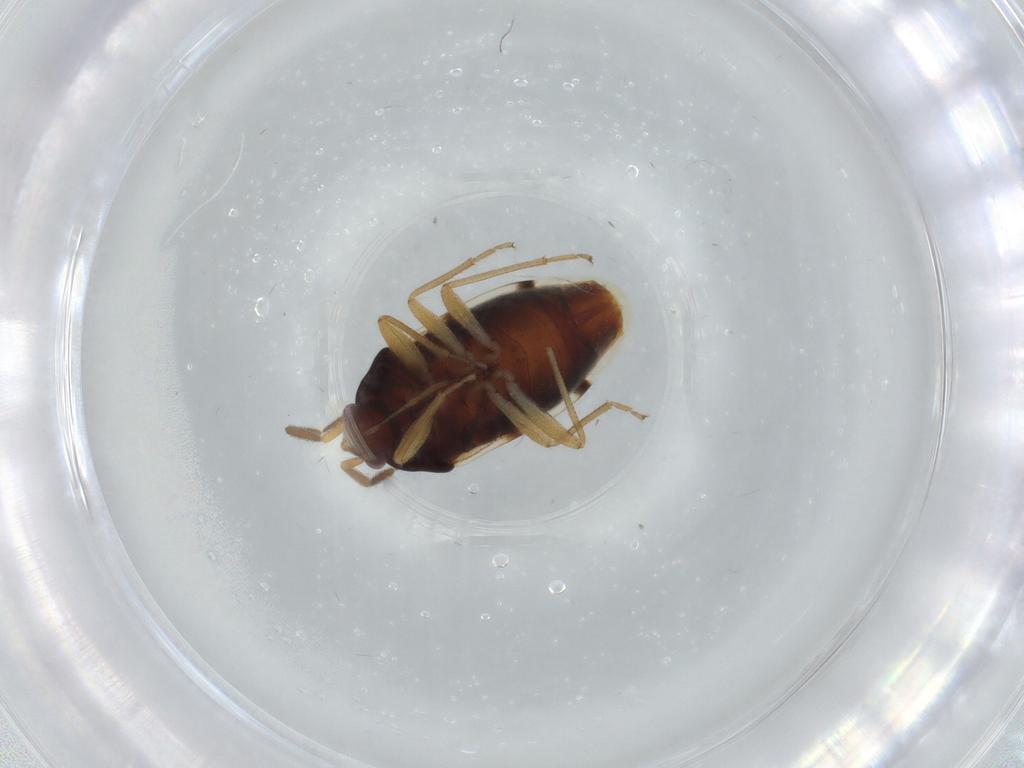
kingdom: Animalia
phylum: Arthropoda
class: Insecta
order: Hemiptera
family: Rhyparochromidae
